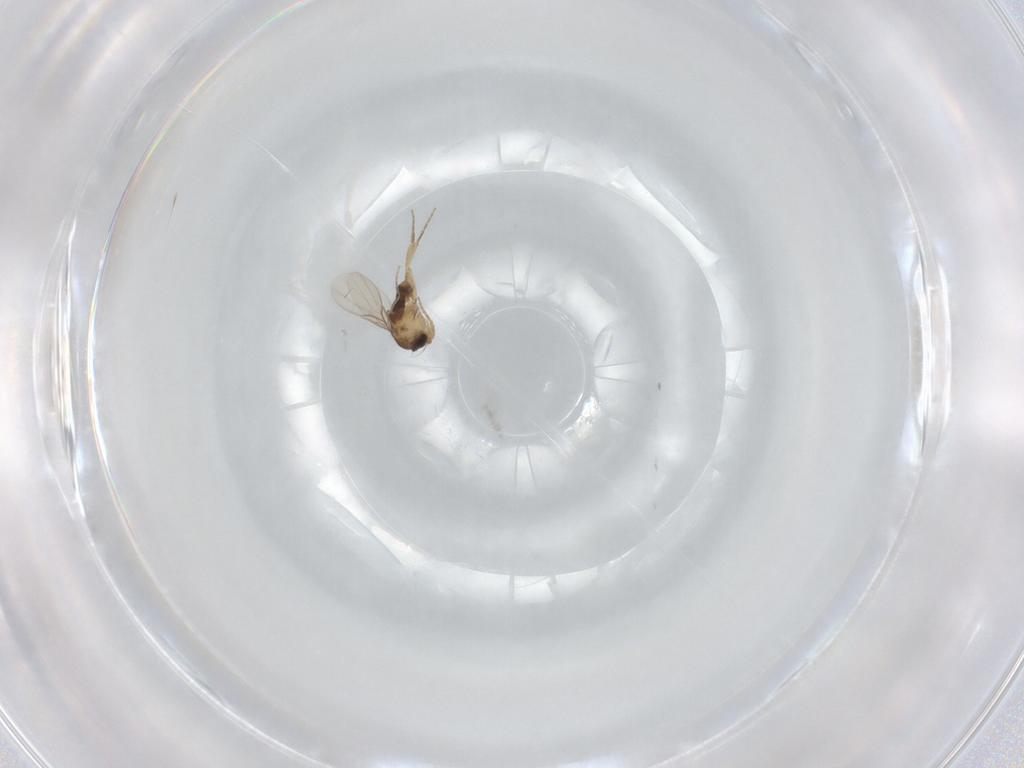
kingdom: Animalia
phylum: Arthropoda
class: Insecta
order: Diptera
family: Phoridae
